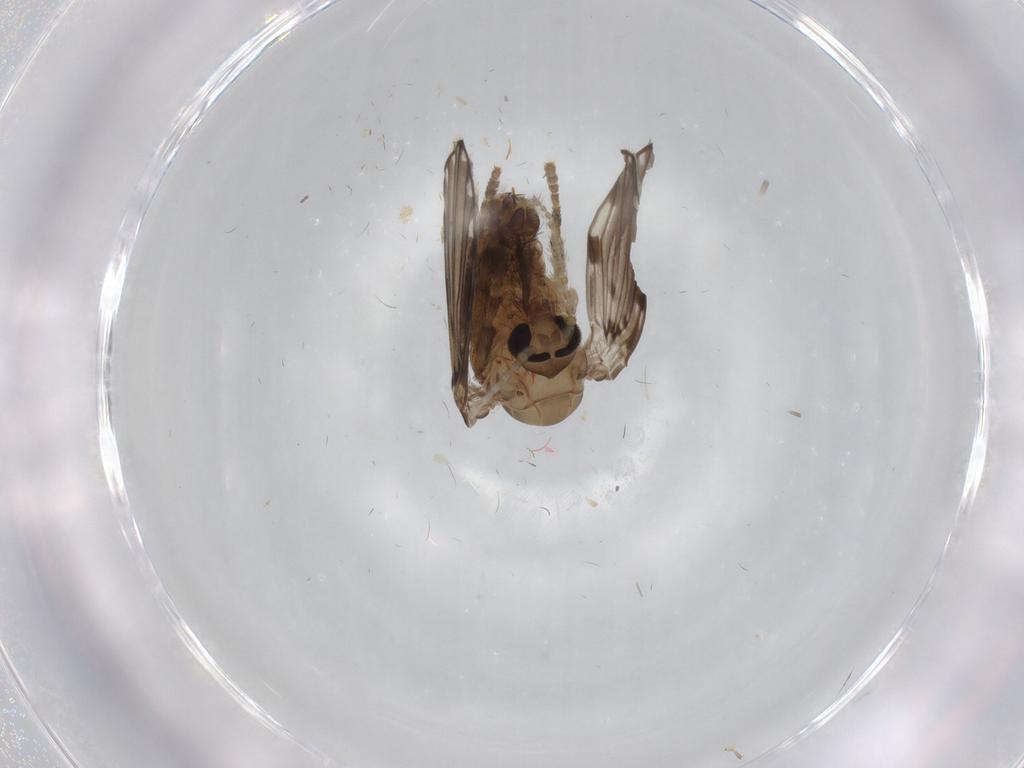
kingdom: Animalia
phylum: Arthropoda
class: Insecta
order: Diptera
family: Psychodidae
